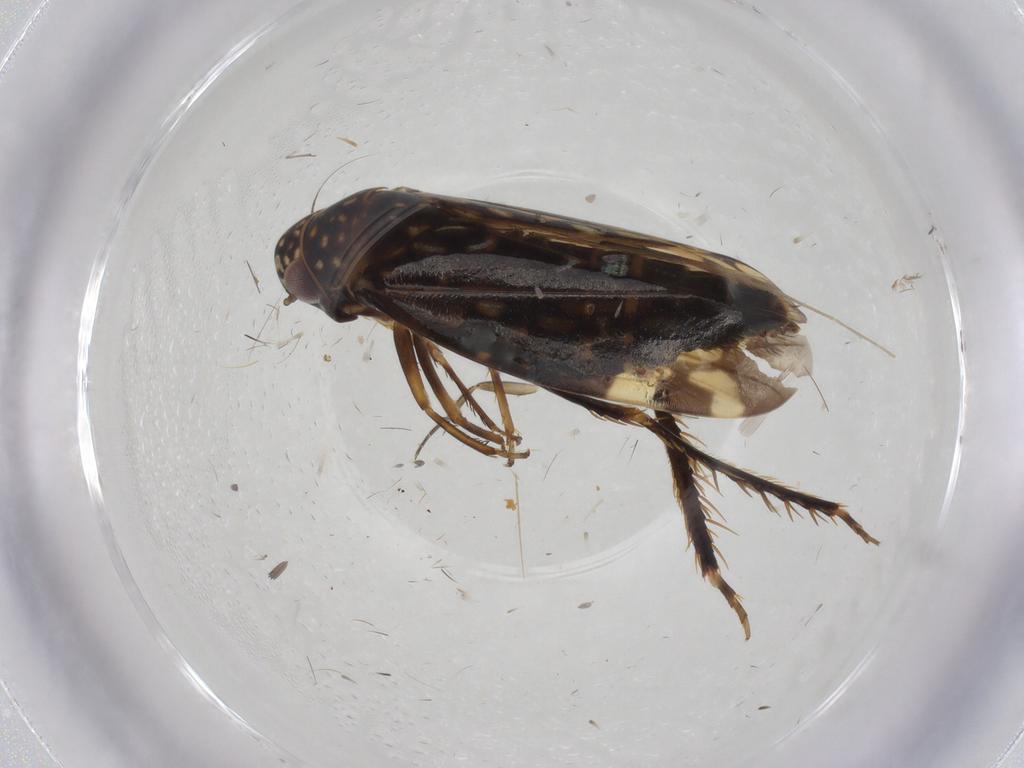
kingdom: Animalia
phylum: Arthropoda
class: Insecta
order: Hemiptera
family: Cicadellidae
